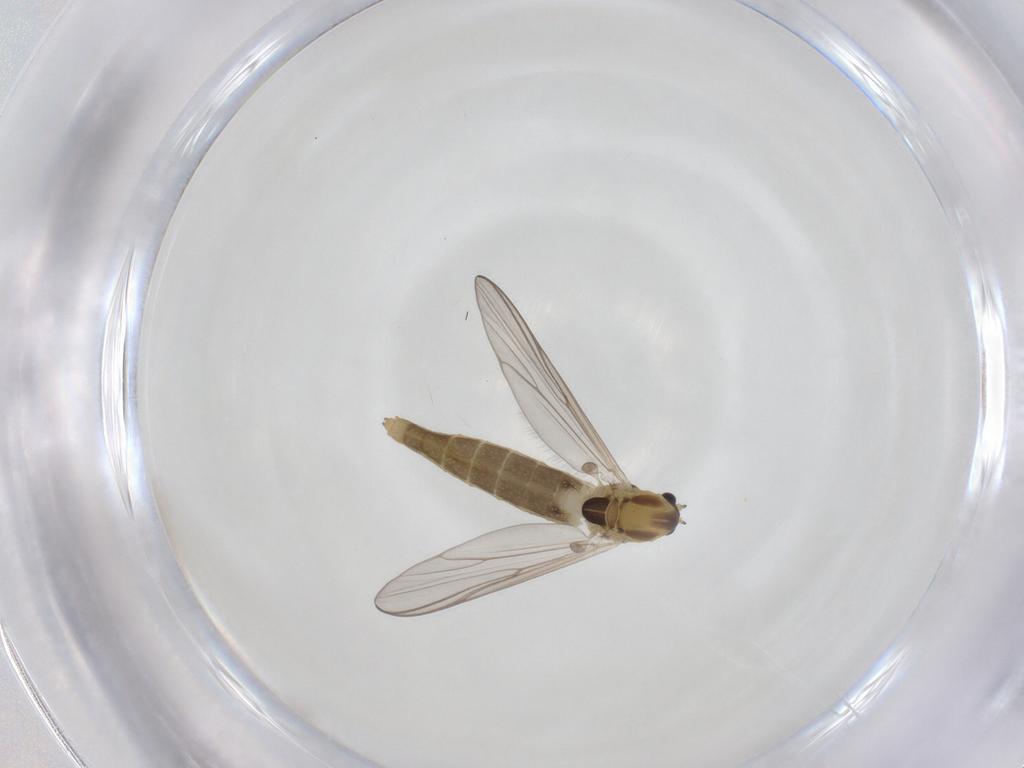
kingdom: Animalia
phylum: Arthropoda
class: Insecta
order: Diptera
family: Chironomidae
